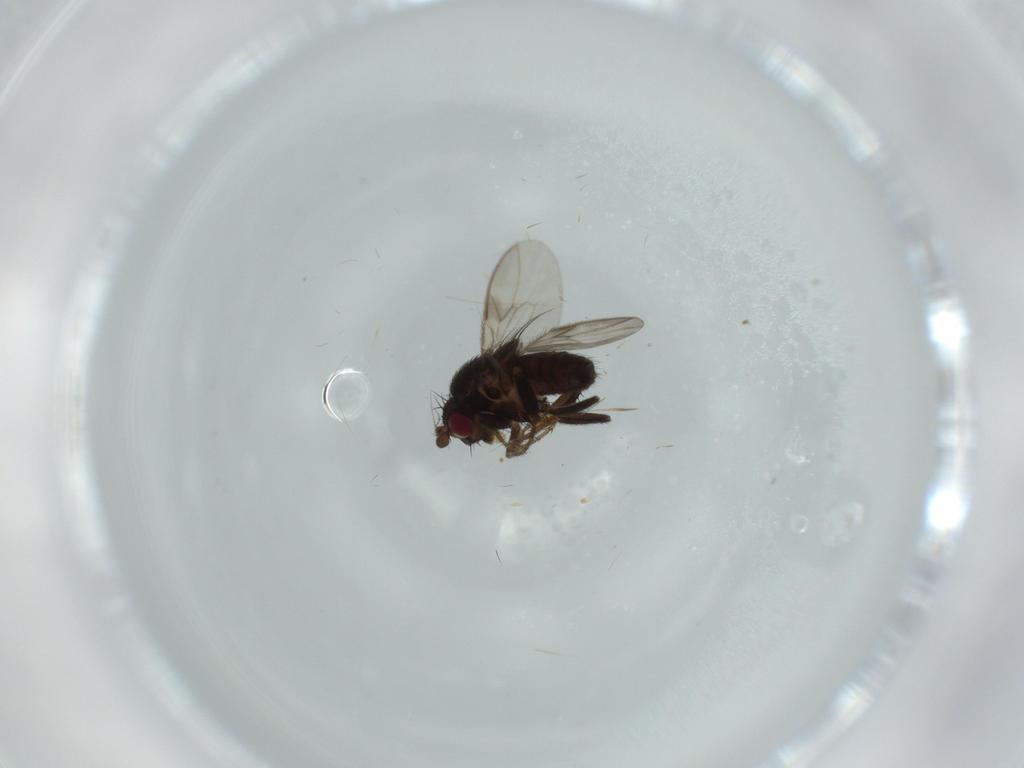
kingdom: Animalia
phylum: Arthropoda
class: Insecta
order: Diptera
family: Sphaeroceridae
